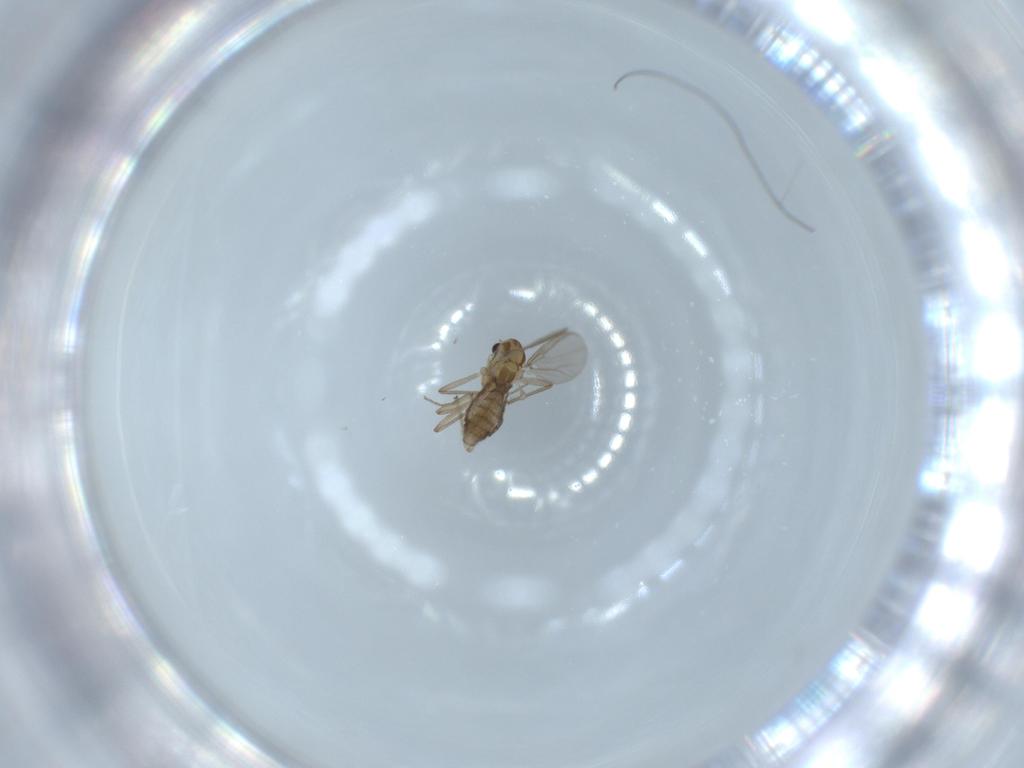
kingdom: Animalia
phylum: Arthropoda
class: Insecta
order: Diptera
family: Chironomidae
